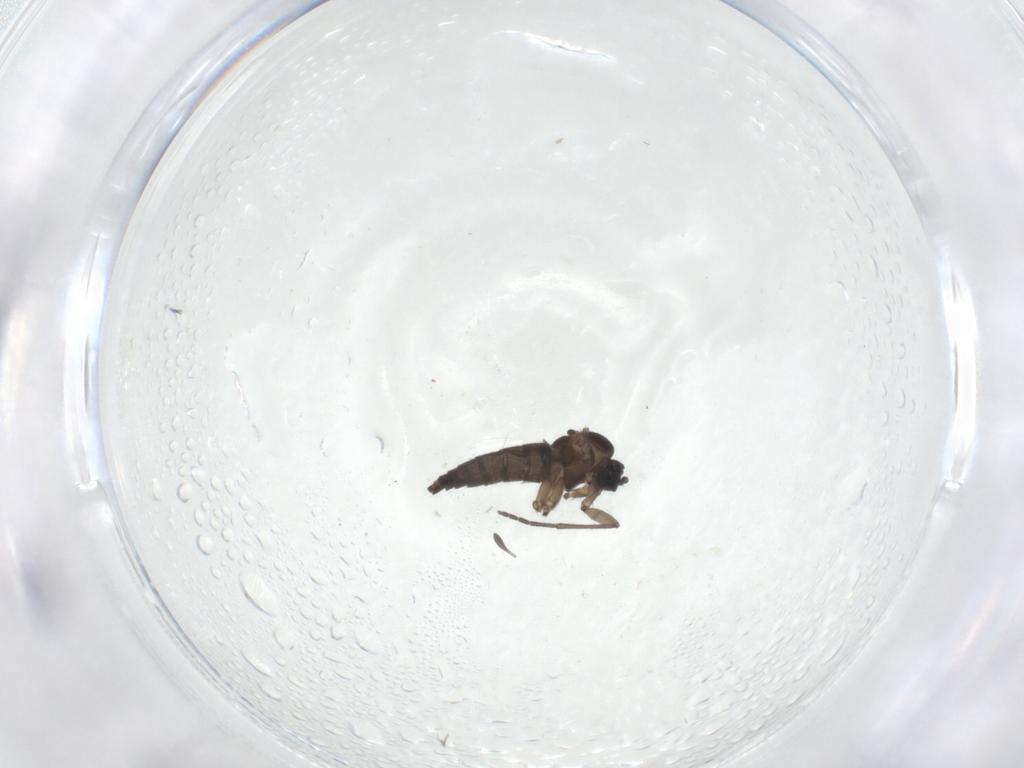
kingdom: Animalia
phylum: Arthropoda
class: Insecta
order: Diptera
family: Sciaridae
